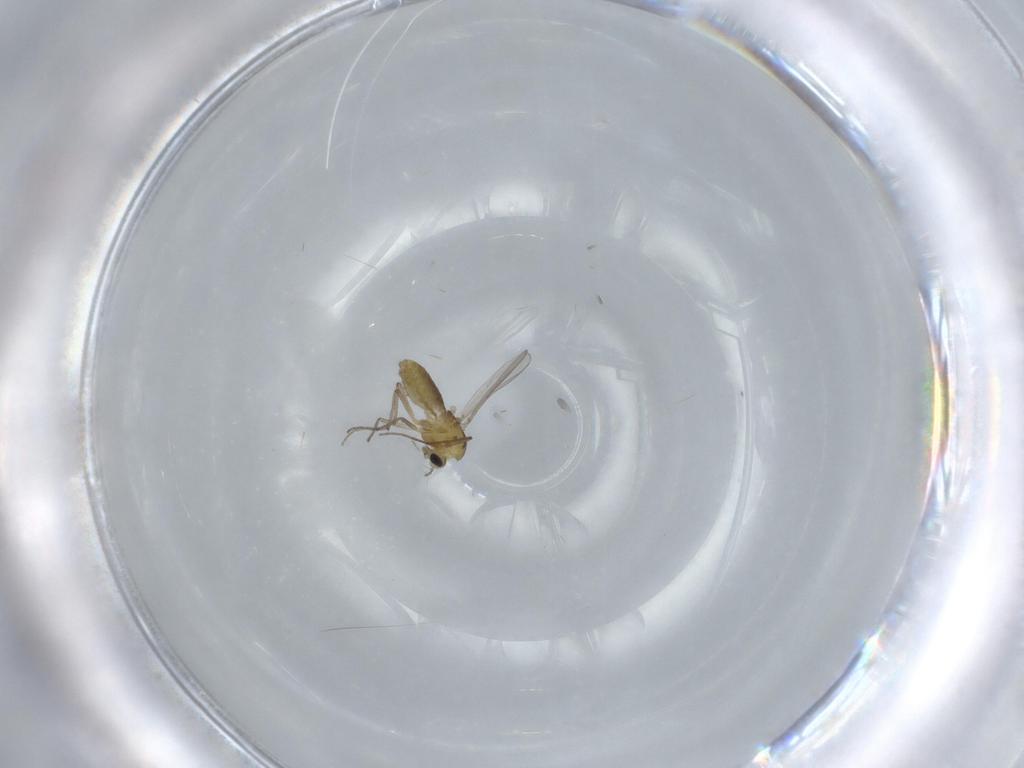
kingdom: Animalia
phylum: Arthropoda
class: Insecta
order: Diptera
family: Chironomidae
